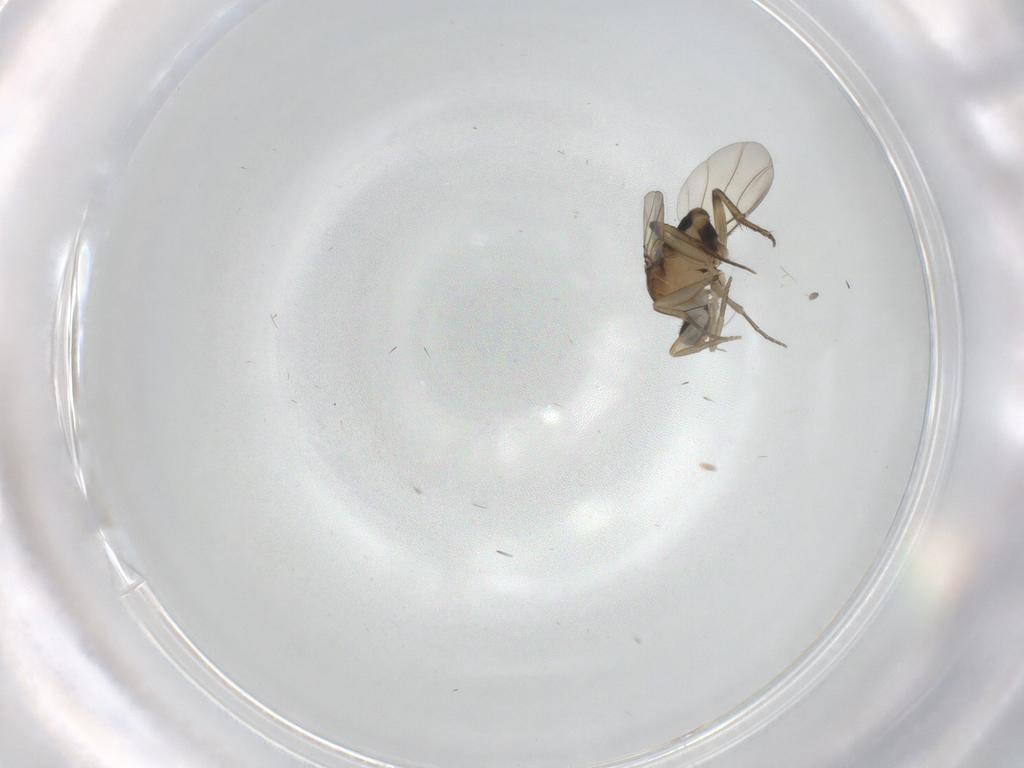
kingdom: Animalia
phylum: Arthropoda
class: Insecta
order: Diptera
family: Phoridae
